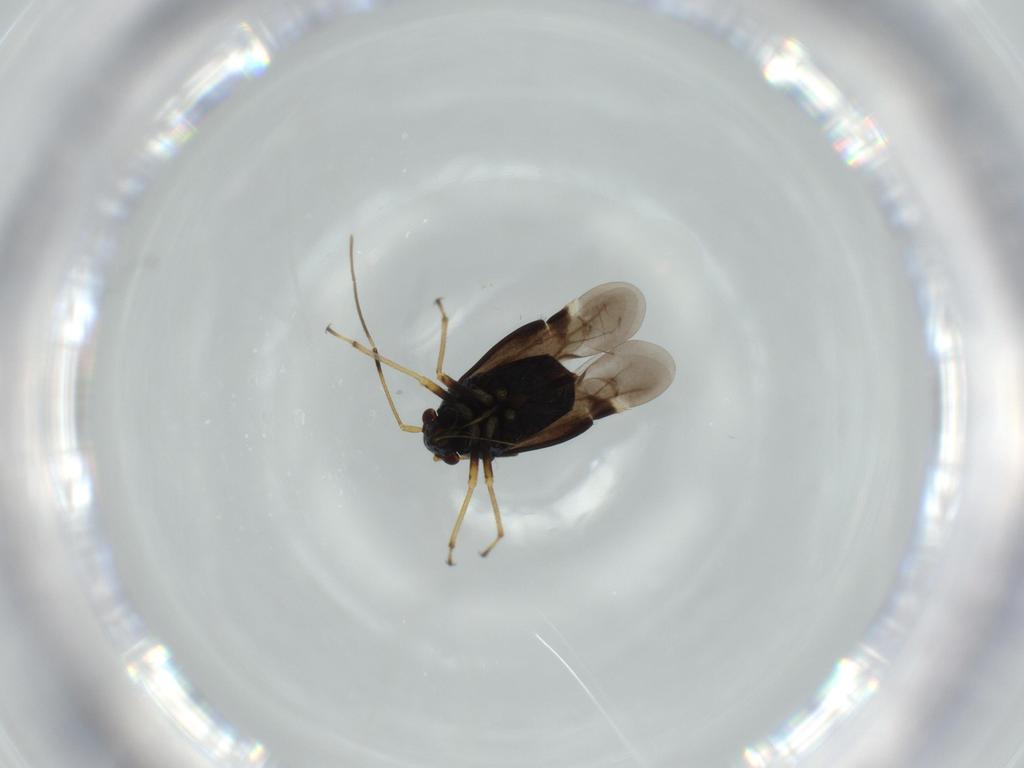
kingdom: Animalia
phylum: Arthropoda
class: Insecta
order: Hemiptera
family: Miridae
